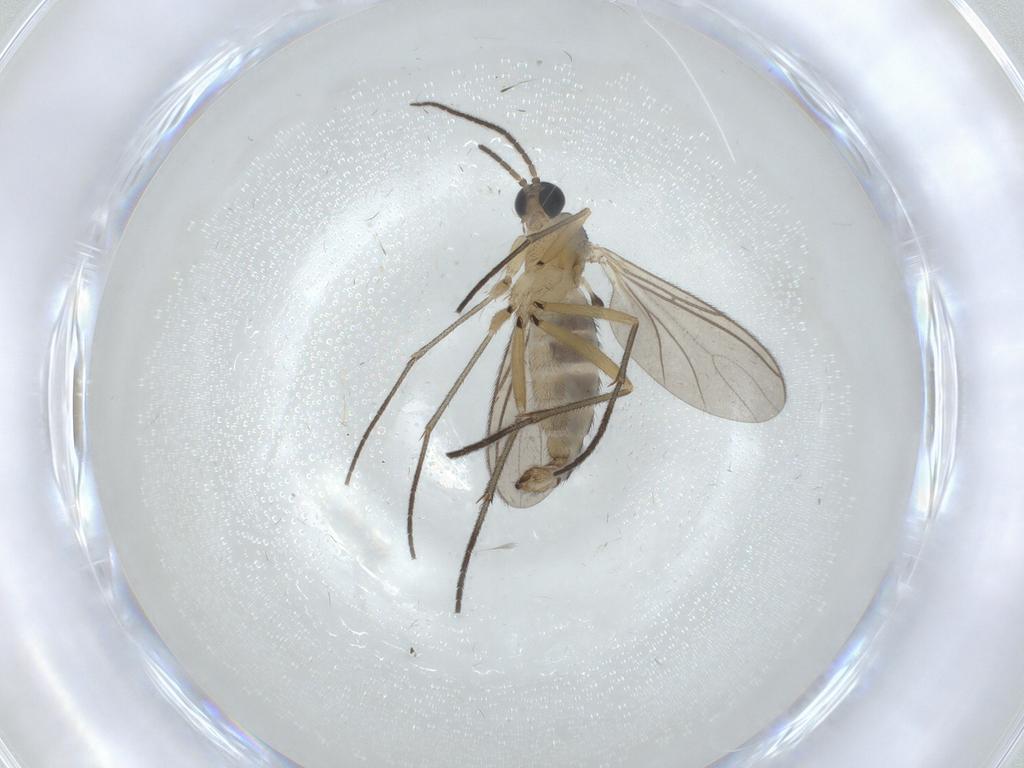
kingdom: Animalia
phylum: Arthropoda
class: Insecta
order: Diptera
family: Sciaridae
